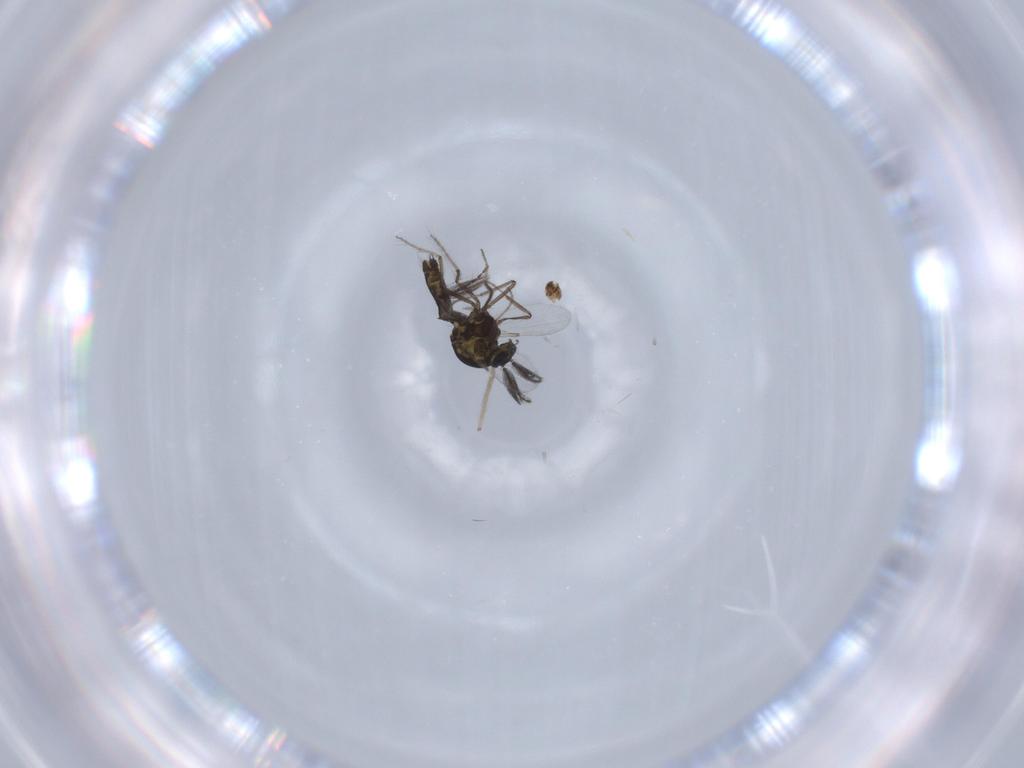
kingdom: Animalia
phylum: Arthropoda
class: Insecta
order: Diptera
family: Ceratopogonidae
